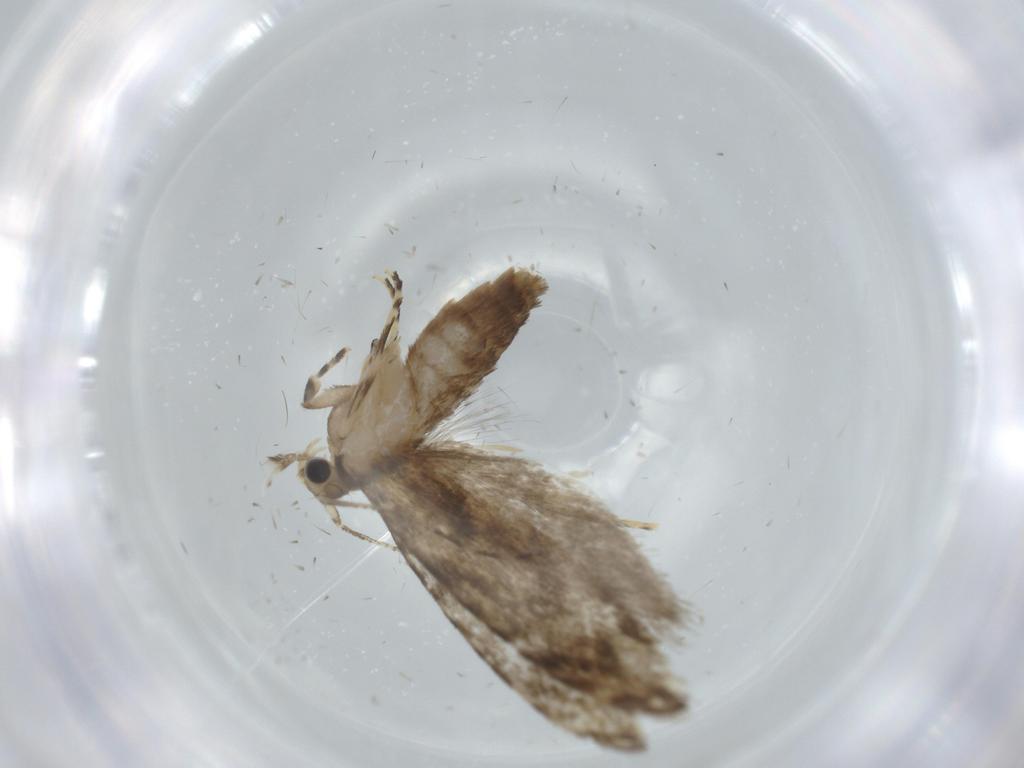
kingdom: Animalia
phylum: Arthropoda
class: Insecta
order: Lepidoptera
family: Tineidae
